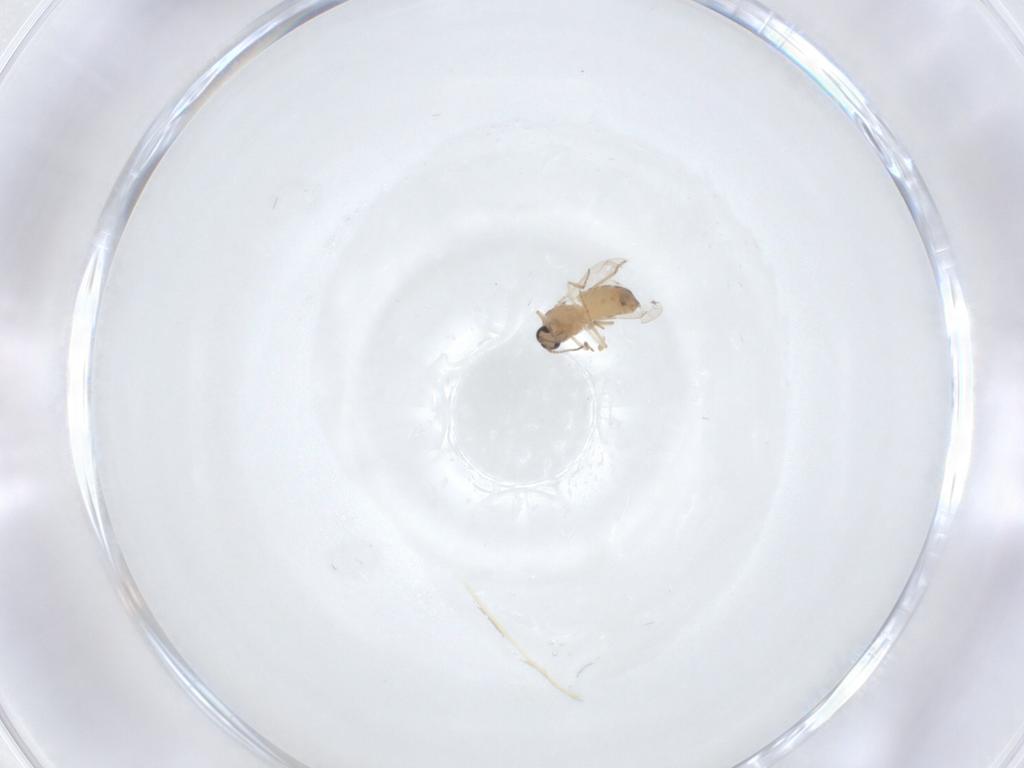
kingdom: Animalia
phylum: Arthropoda
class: Insecta
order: Diptera
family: Ceratopogonidae
